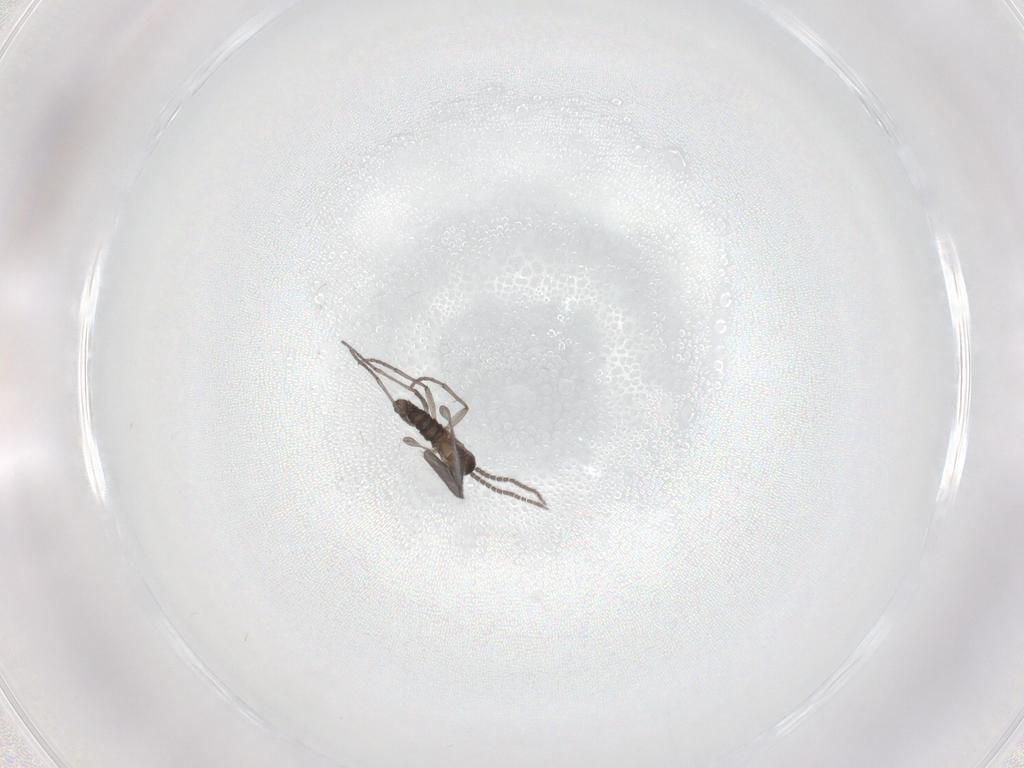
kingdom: Animalia
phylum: Arthropoda
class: Insecta
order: Diptera
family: Sciaridae
